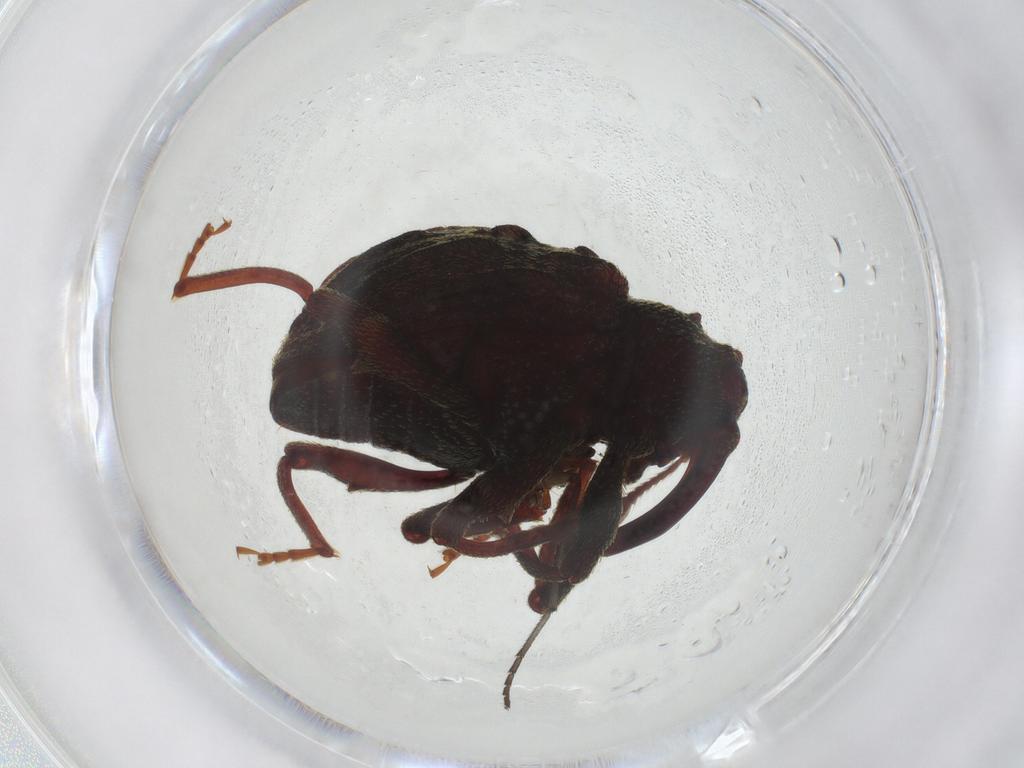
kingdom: Animalia
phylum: Arthropoda
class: Insecta
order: Coleoptera
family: Curculionidae
